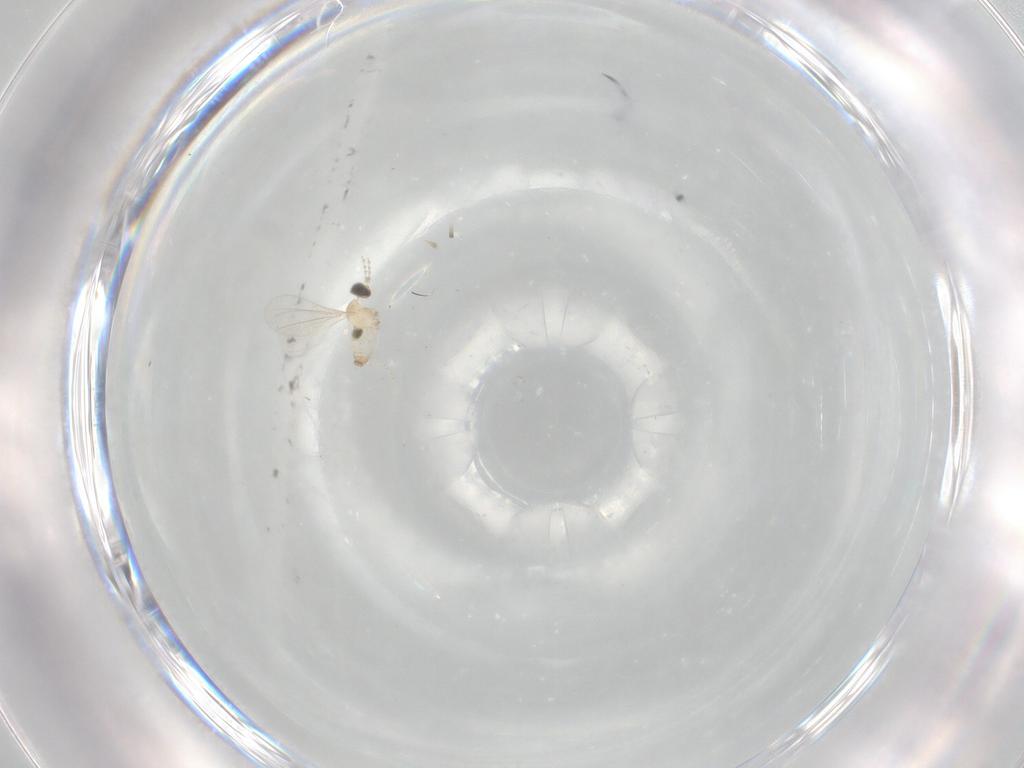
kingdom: Animalia
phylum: Arthropoda
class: Insecta
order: Diptera
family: Cecidomyiidae
